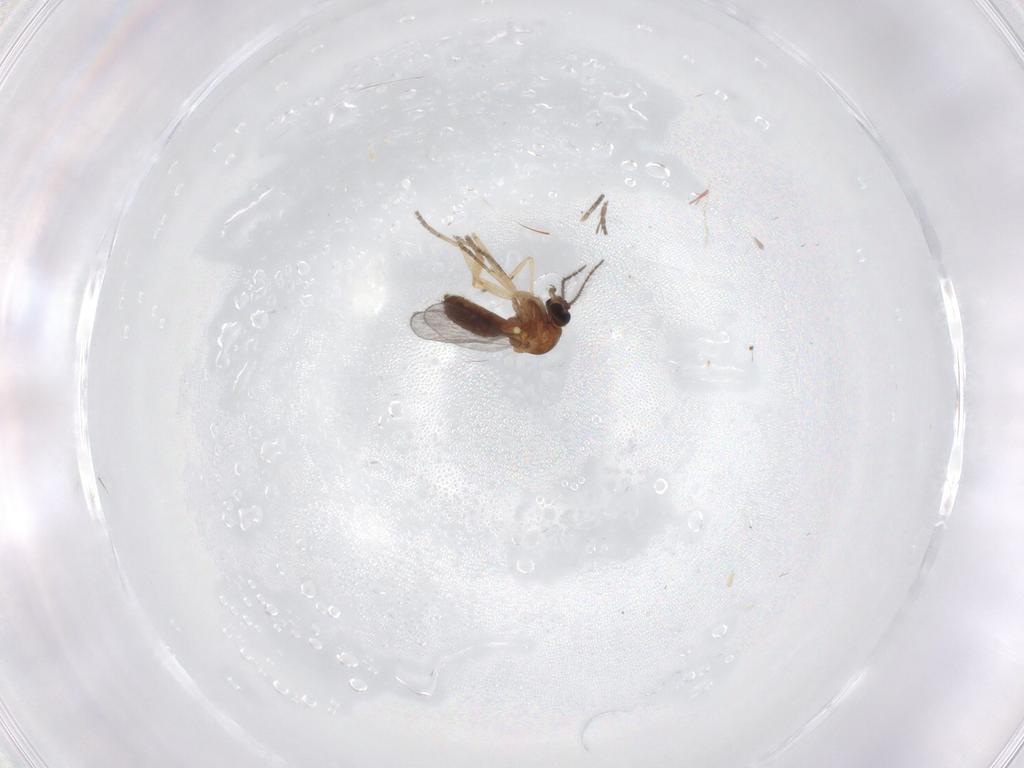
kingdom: Animalia
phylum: Arthropoda
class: Insecta
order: Diptera
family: Ceratopogonidae
